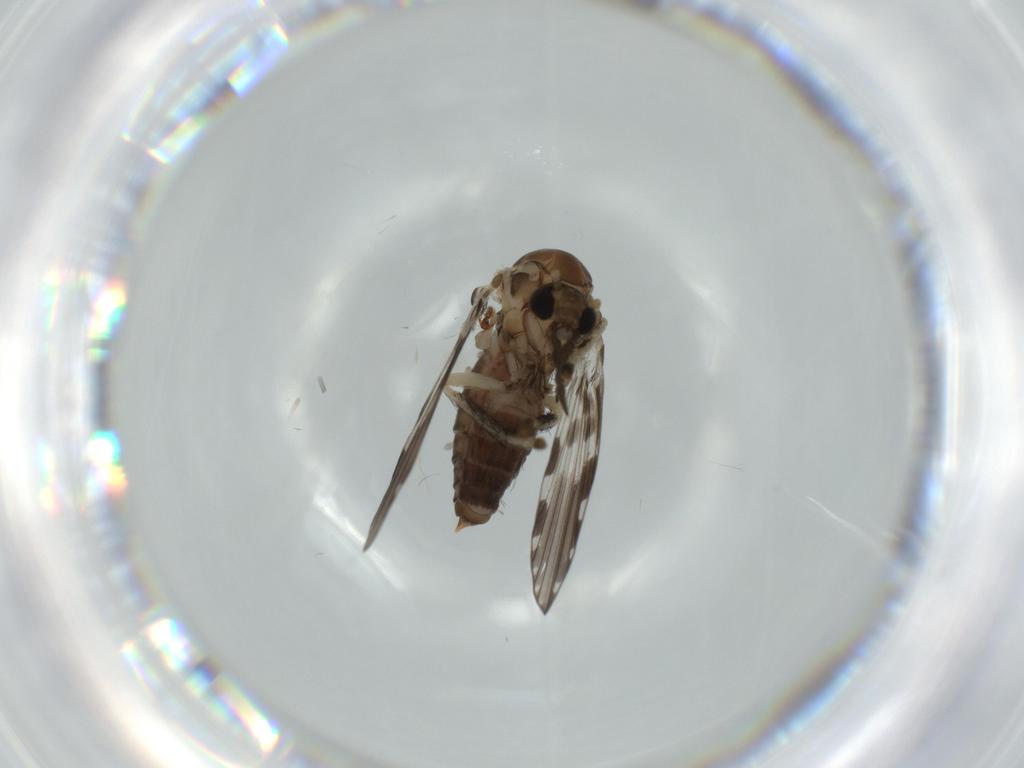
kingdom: Animalia
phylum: Arthropoda
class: Insecta
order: Diptera
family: Psychodidae
